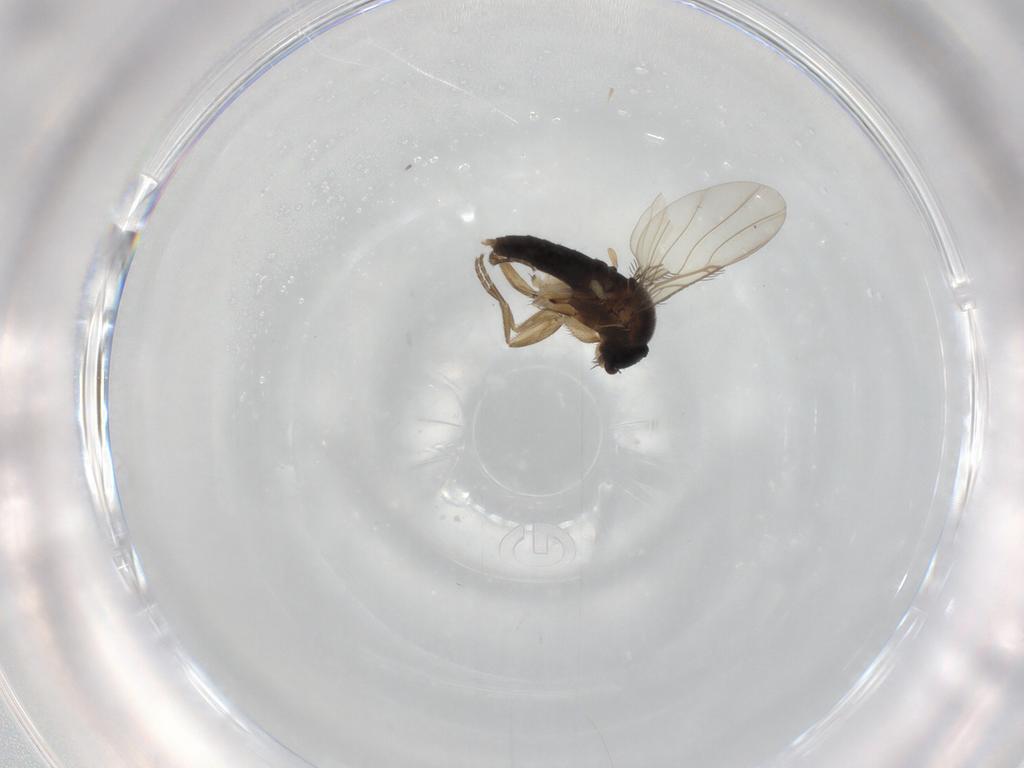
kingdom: Animalia
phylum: Arthropoda
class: Insecta
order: Diptera
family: Phoridae
